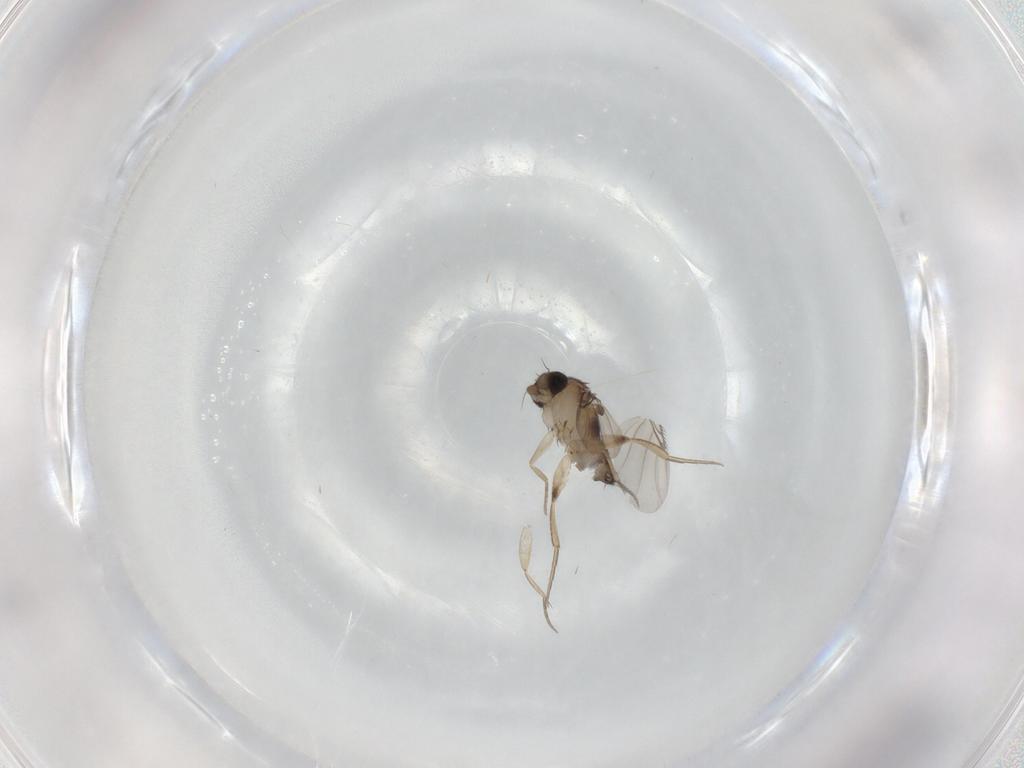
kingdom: Animalia
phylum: Arthropoda
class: Insecta
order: Diptera
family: Phoridae
